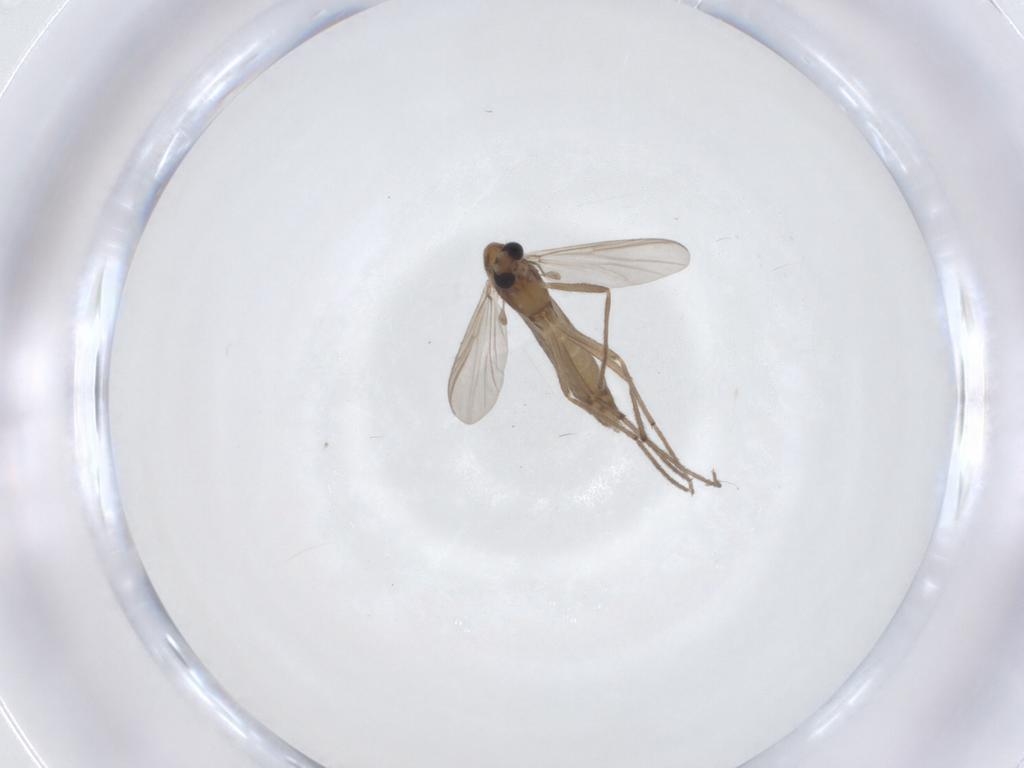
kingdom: Animalia
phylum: Arthropoda
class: Insecta
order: Diptera
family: Chironomidae
